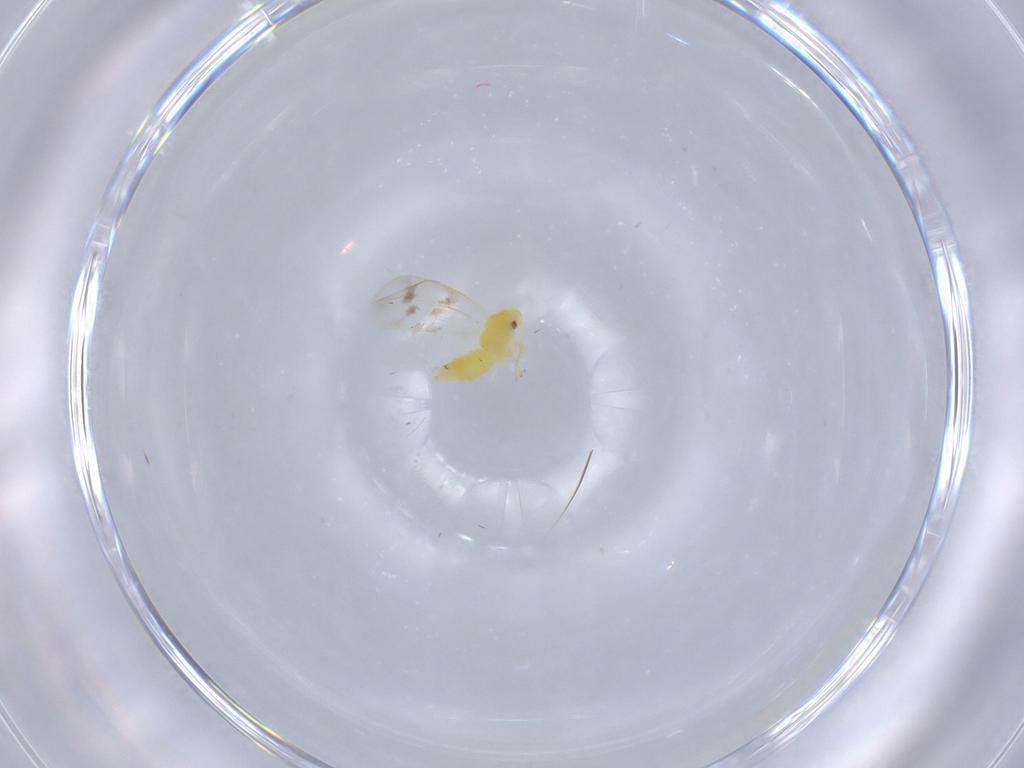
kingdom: Animalia
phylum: Arthropoda
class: Insecta
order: Hemiptera
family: Aleyrodidae
